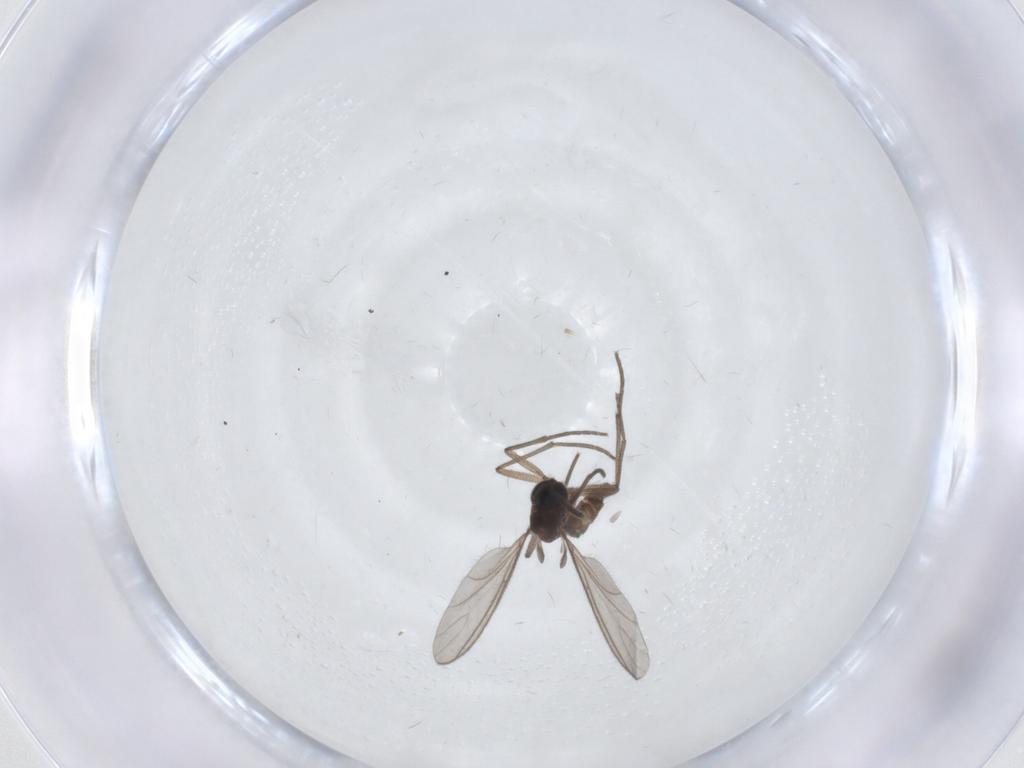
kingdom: Animalia
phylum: Arthropoda
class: Insecta
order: Diptera
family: Sciaridae
